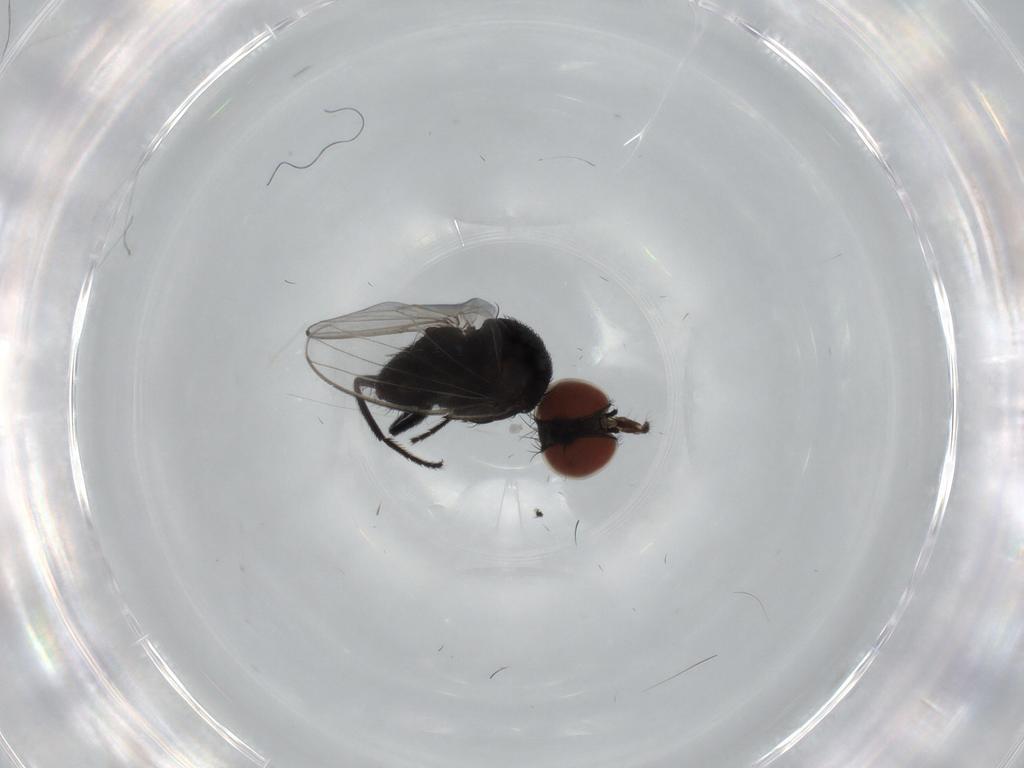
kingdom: Animalia
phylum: Arthropoda
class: Insecta
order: Diptera
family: Milichiidae
